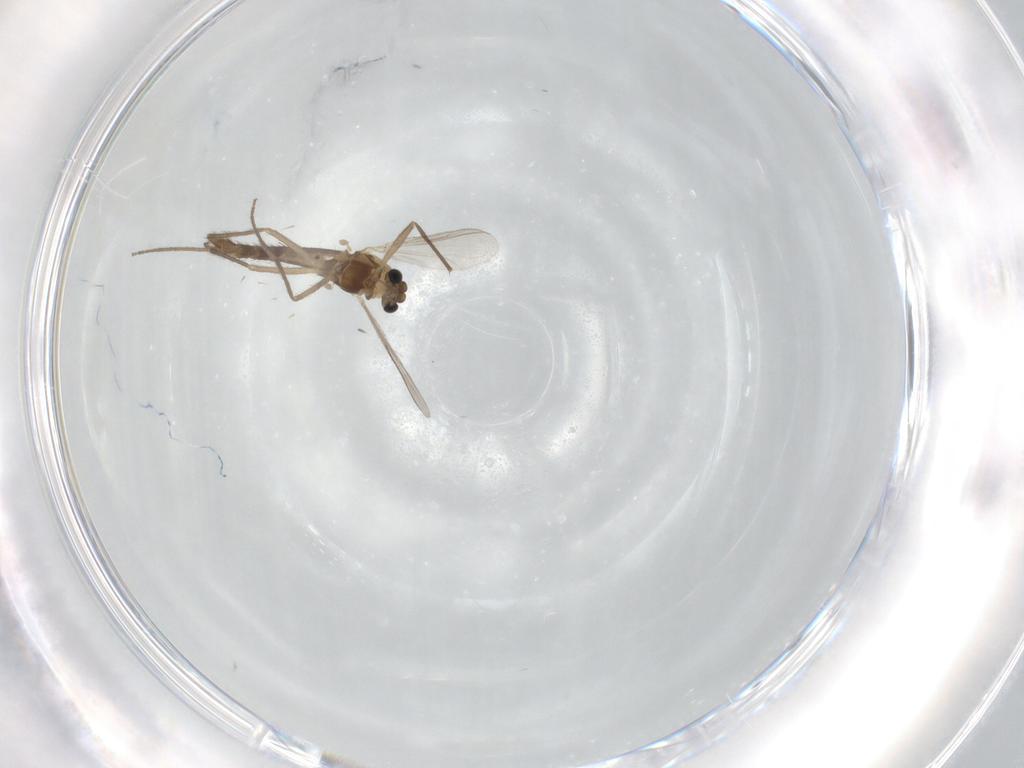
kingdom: Animalia
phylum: Arthropoda
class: Insecta
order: Diptera
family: Chironomidae
